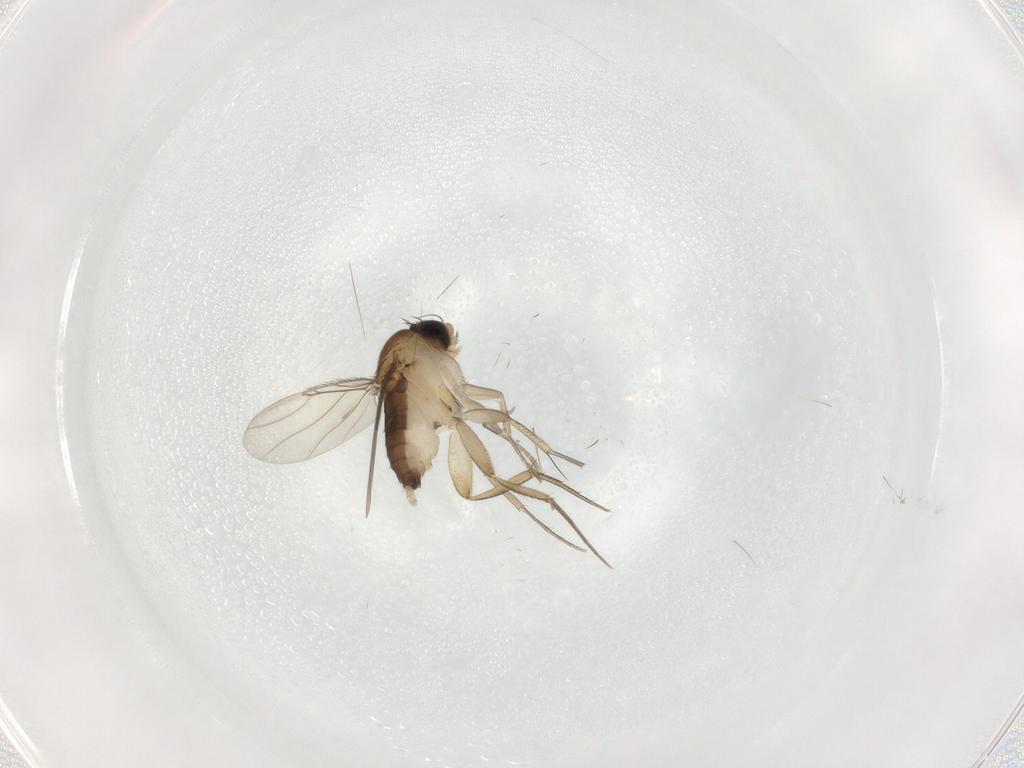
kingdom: Animalia
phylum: Arthropoda
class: Insecta
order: Diptera
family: Phoridae
